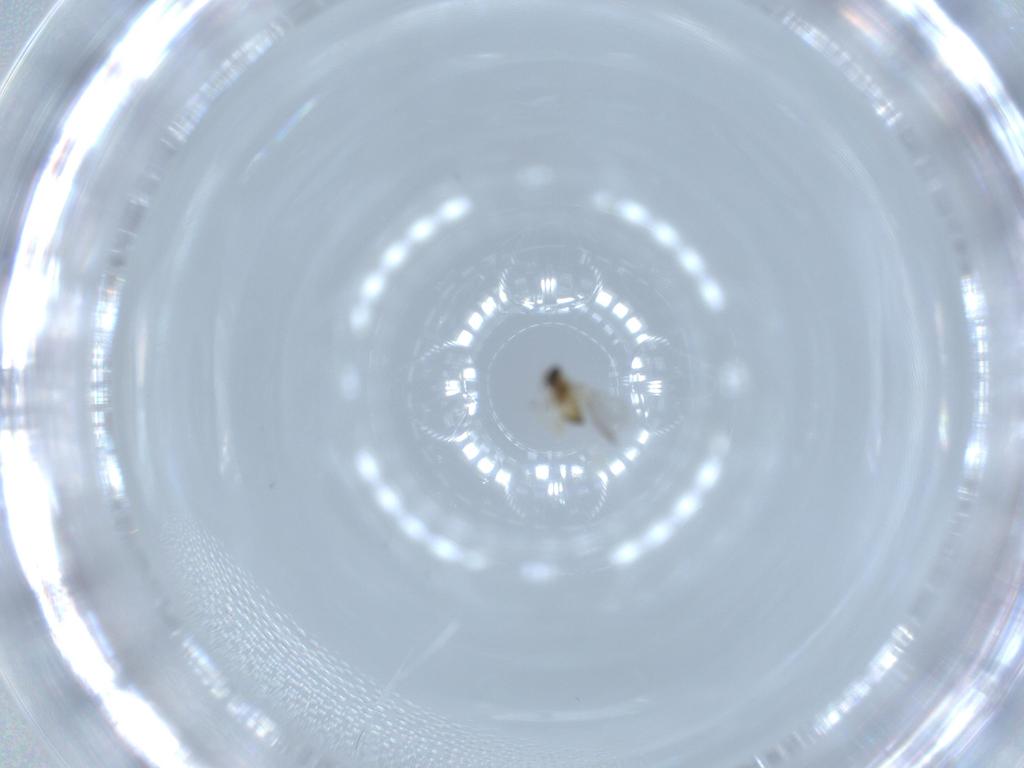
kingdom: Animalia
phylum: Arthropoda
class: Insecta
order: Hymenoptera
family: Trichogrammatidae
